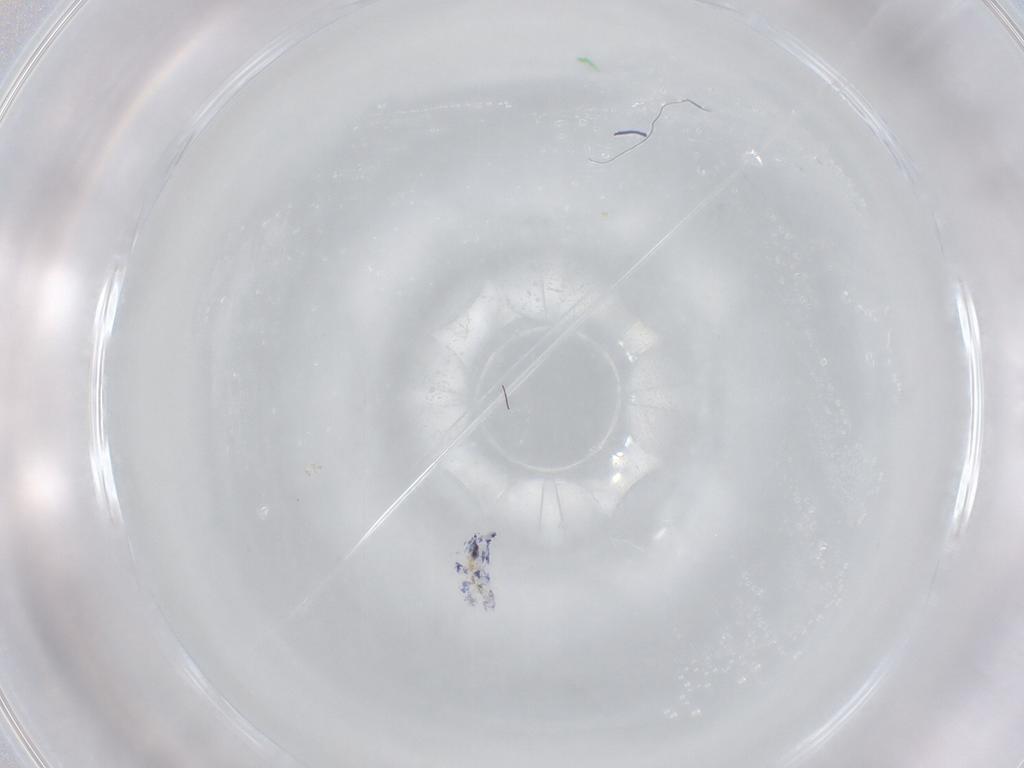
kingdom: Animalia
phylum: Arthropoda
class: Collembola
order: Entomobryomorpha
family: Entomobryidae
